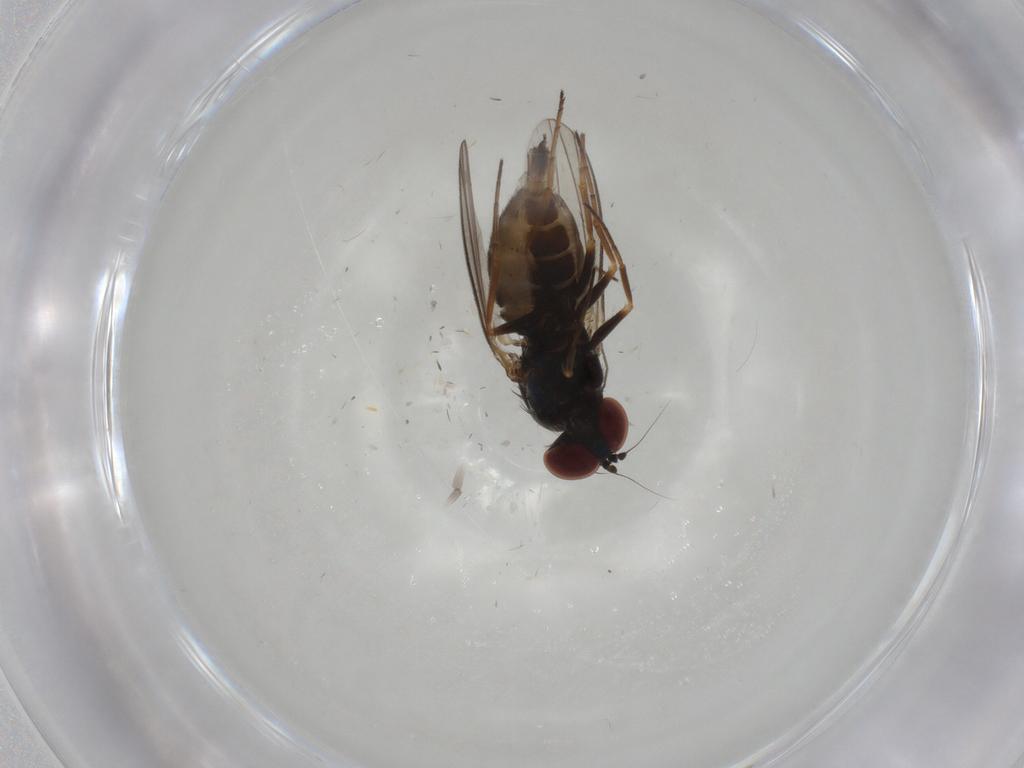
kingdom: Animalia
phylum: Arthropoda
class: Insecta
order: Diptera
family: Dolichopodidae
